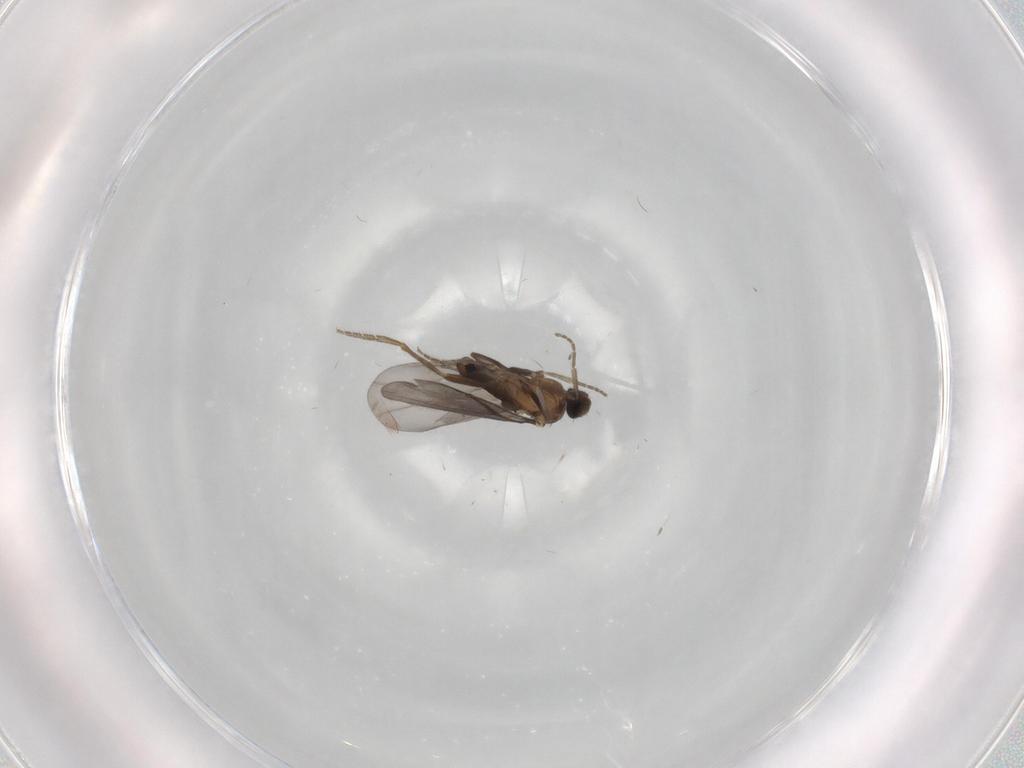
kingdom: Animalia
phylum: Arthropoda
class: Insecta
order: Diptera
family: Phoridae
